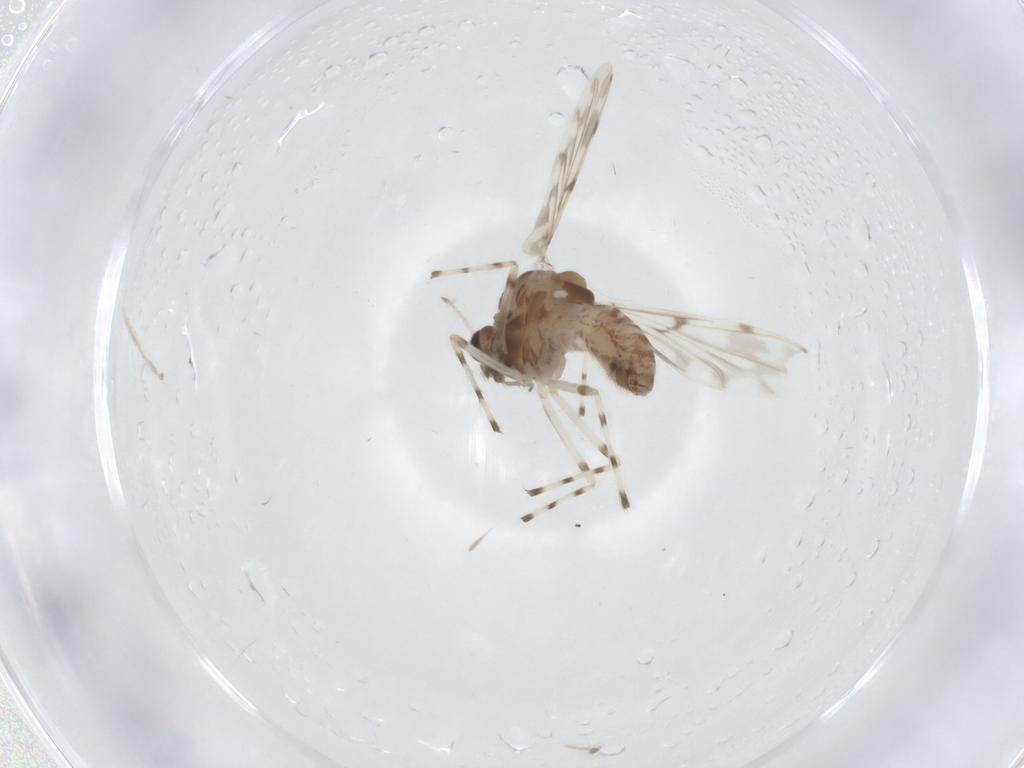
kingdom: Animalia
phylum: Arthropoda
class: Insecta
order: Diptera
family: Chironomidae
